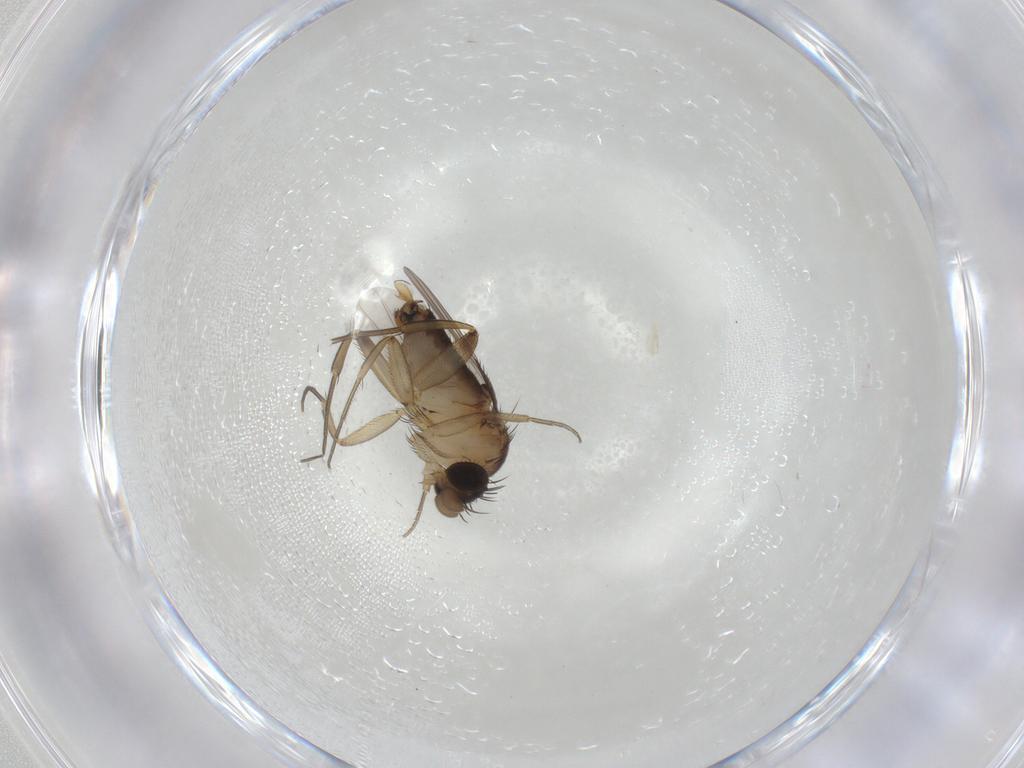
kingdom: Animalia
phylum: Arthropoda
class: Insecta
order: Diptera
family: Phoridae
